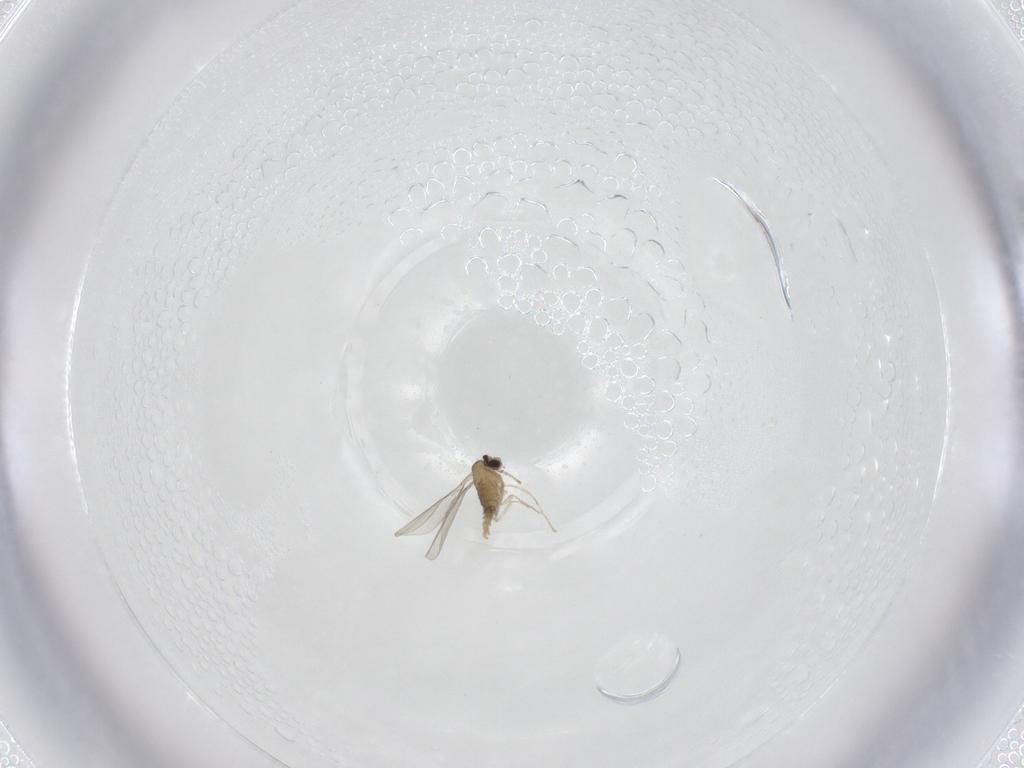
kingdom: Animalia
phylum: Arthropoda
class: Insecta
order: Diptera
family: Cecidomyiidae
